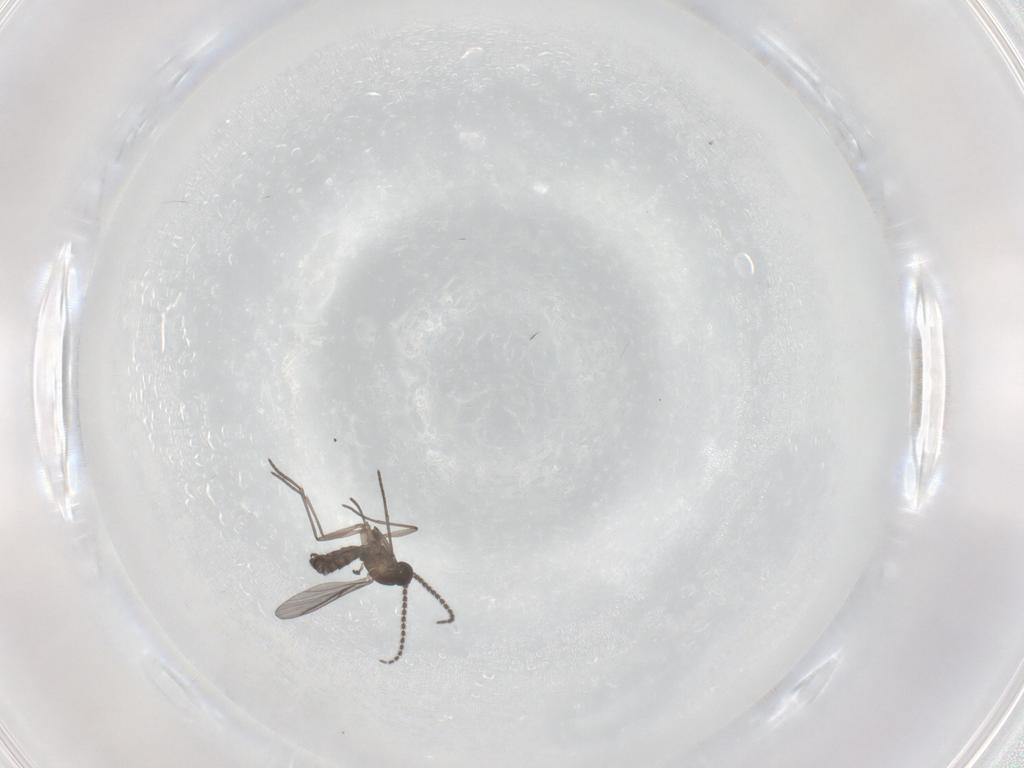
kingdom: Animalia
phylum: Arthropoda
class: Insecta
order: Diptera
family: Chironomidae
